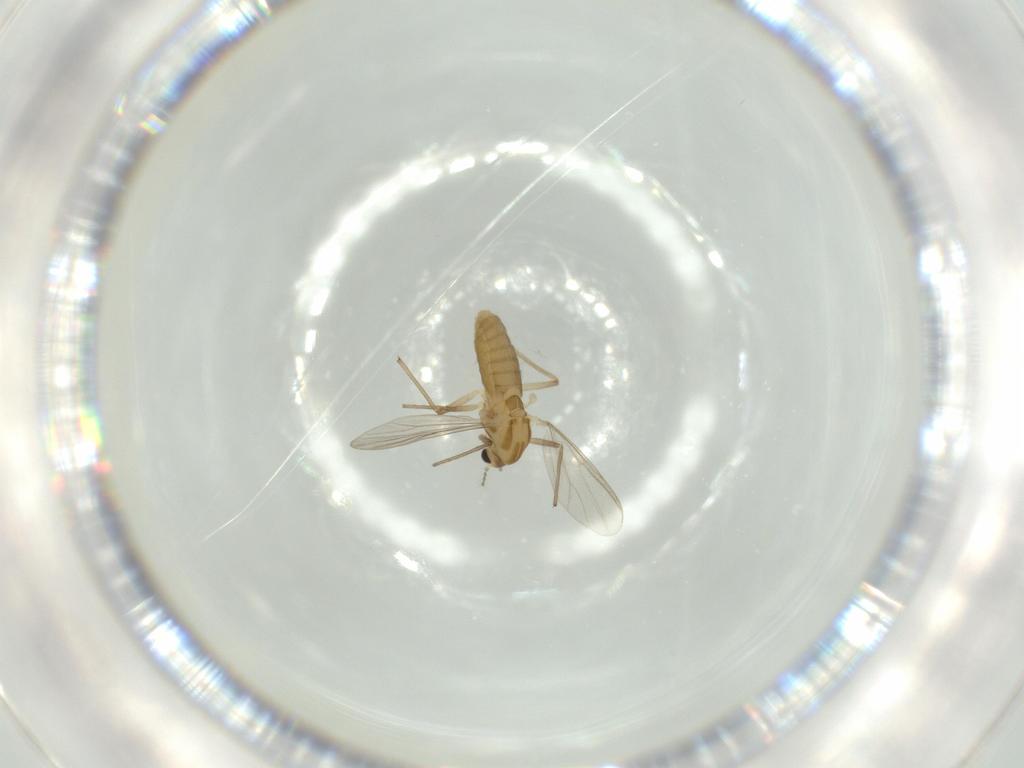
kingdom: Animalia
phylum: Arthropoda
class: Insecta
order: Diptera
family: Chironomidae
